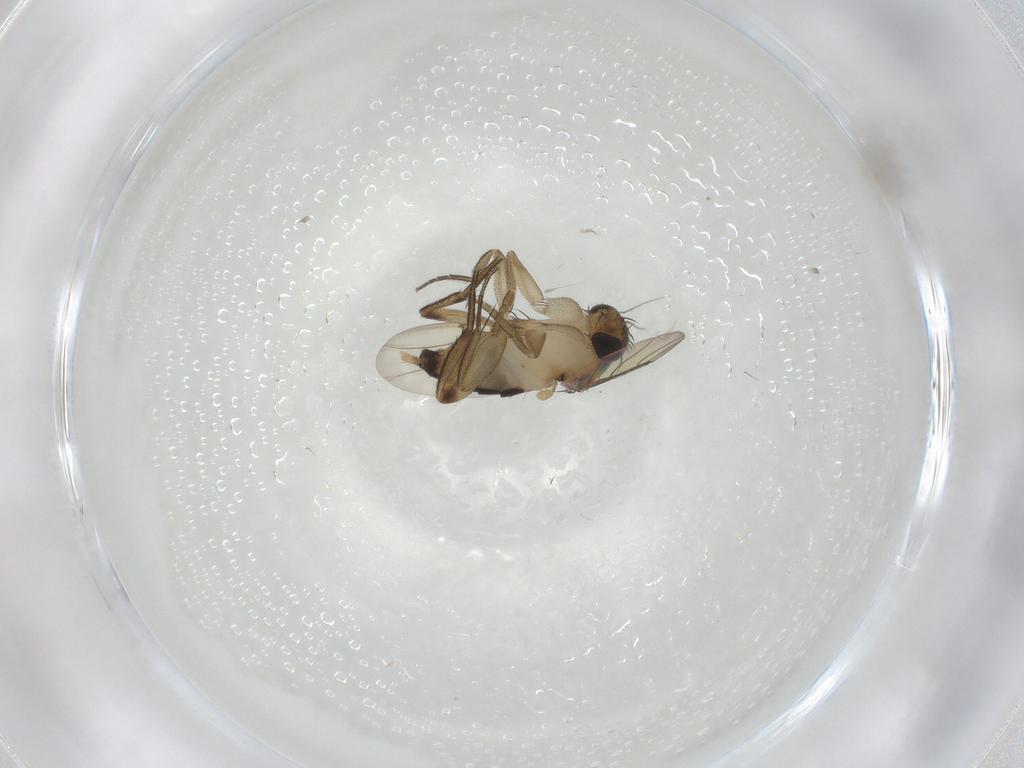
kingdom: Animalia
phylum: Arthropoda
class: Insecta
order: Diptera
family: Phoridae
